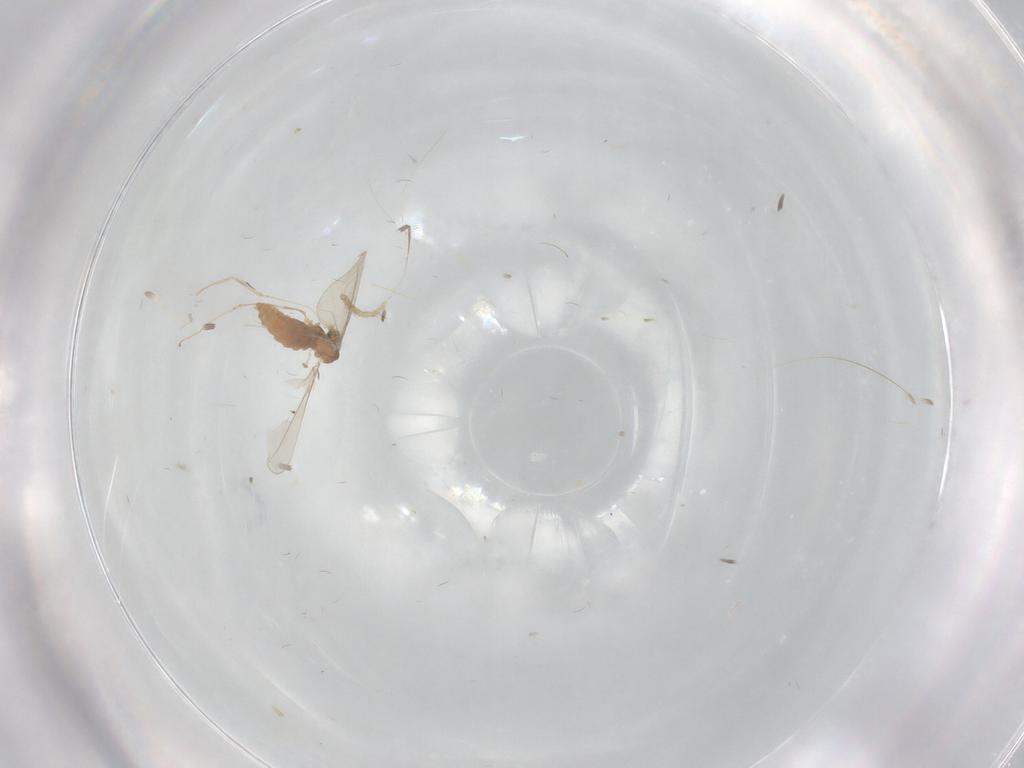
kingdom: Animalia
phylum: Arthropoda
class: Insecta
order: Diptera
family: Cecidomyiidae
